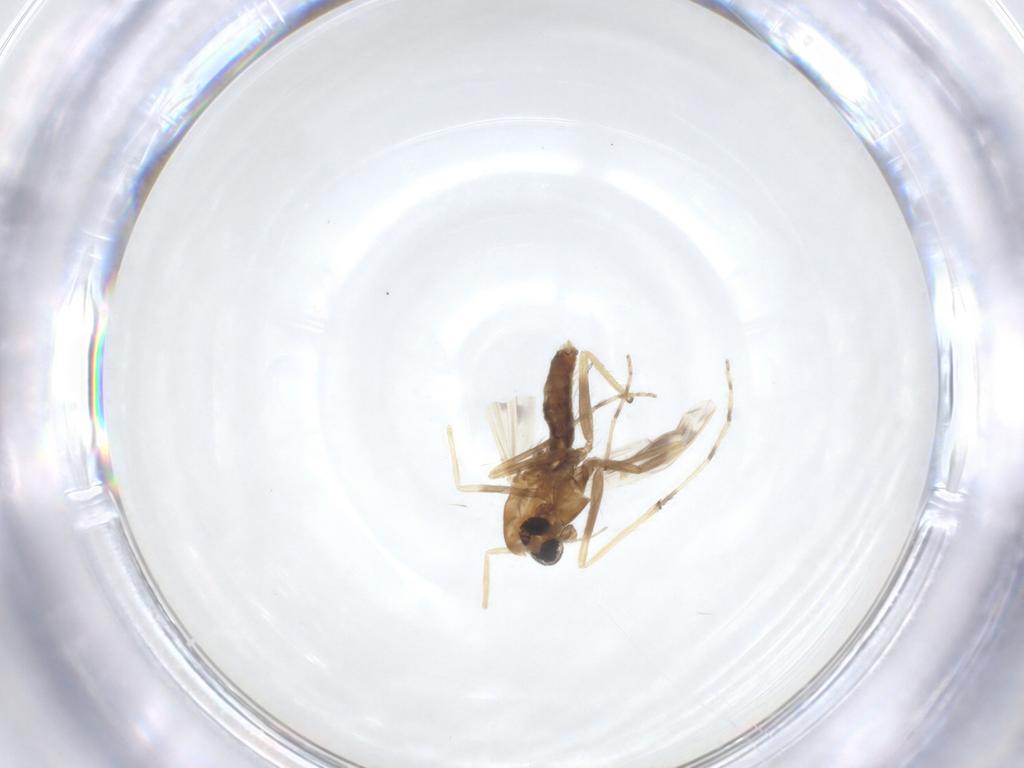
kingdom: Animalia
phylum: Arthropoda
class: Insecta
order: Diptera
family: Chironomidae
